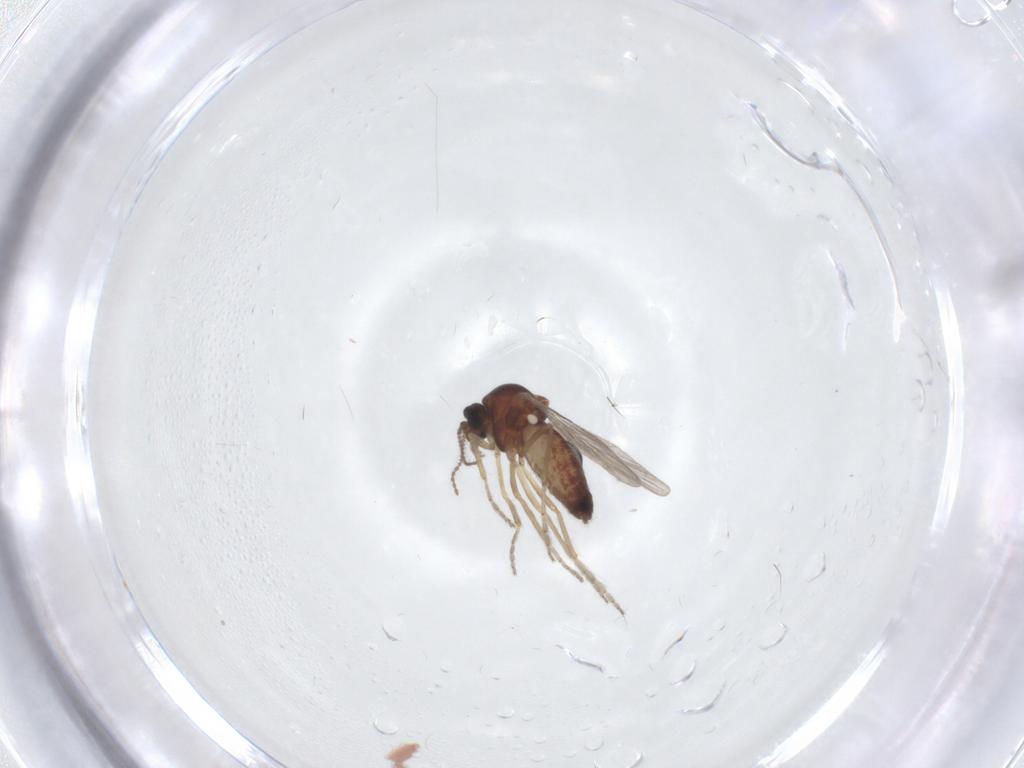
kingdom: Animalia
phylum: Arthropoda
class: Insecta
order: Diptera
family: Ceratopogonidae
